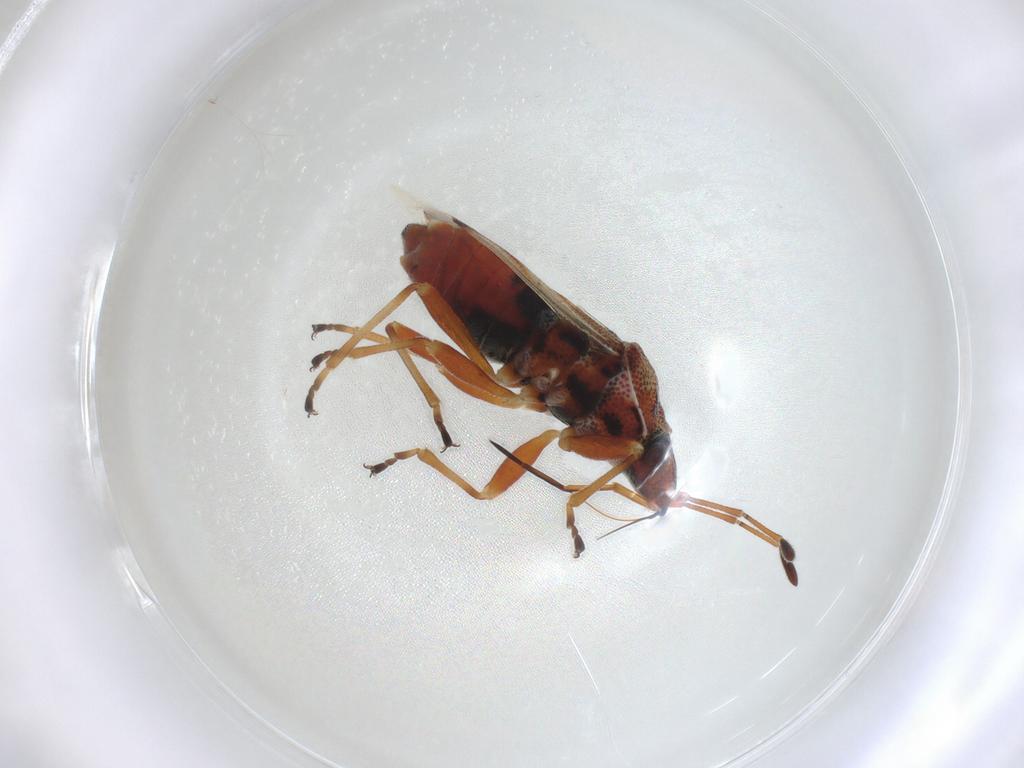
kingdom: Animalia
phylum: Arthropoda
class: Insecta
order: Hemiptera
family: Lygaeidae
